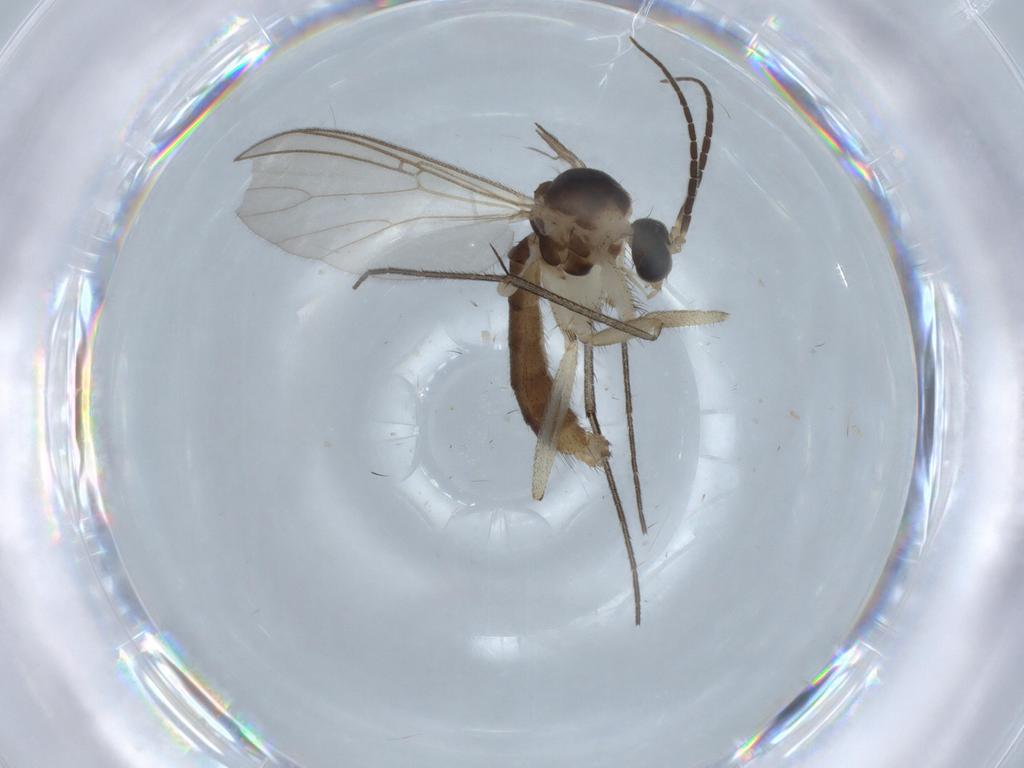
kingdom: Animalia
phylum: Arthropoda
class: Insecta
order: Diptera
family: Mycetophilidae
